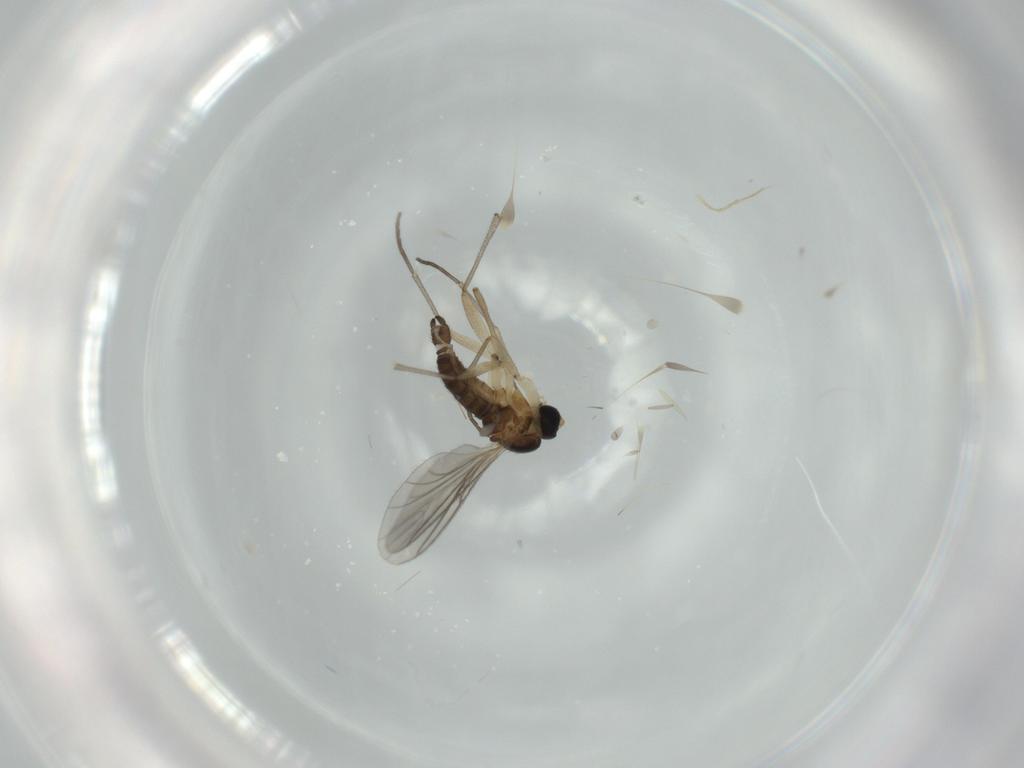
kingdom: Animalia
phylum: Arthropoda
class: Insecta
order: Diptera
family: Sciaridae
